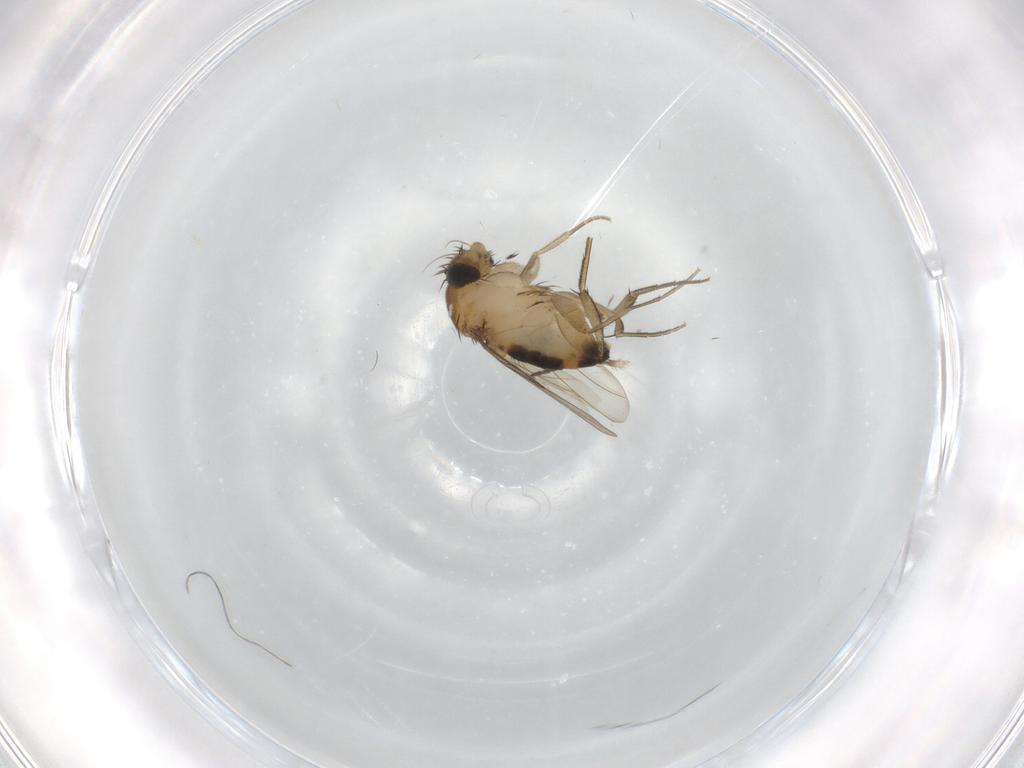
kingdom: Animalia
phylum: Arthropoda
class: Insecta
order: Diptera
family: Phoridae
